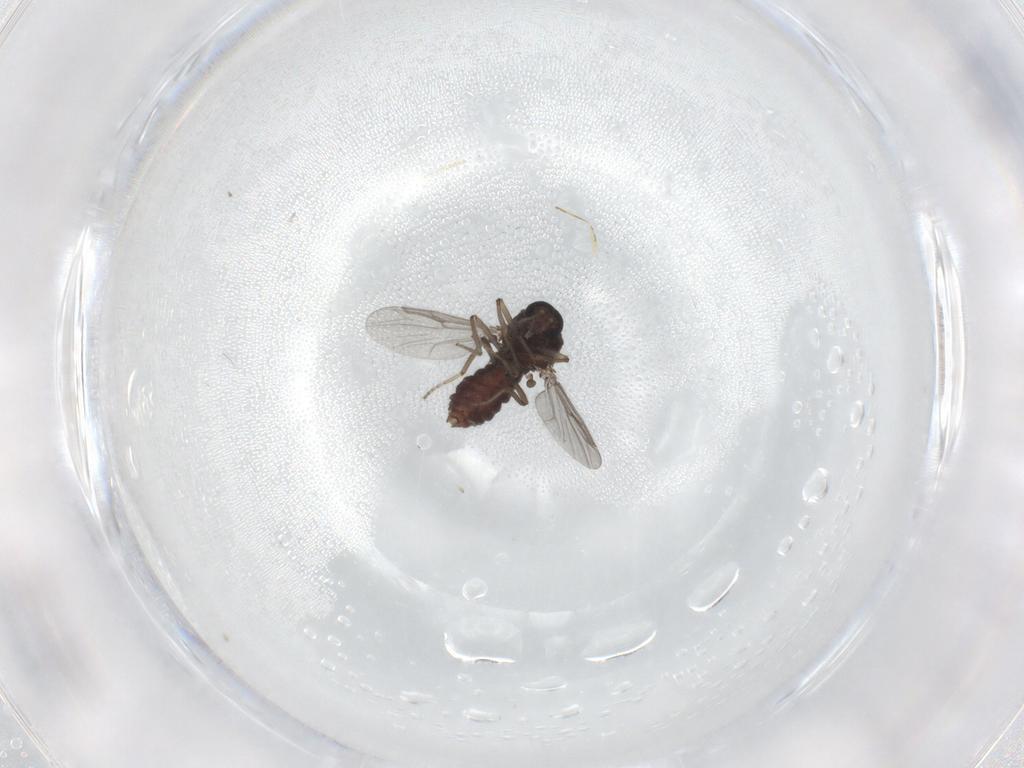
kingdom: Animalia
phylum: Arthropoda
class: Insecta
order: Diptera
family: Ceratopogonidae
